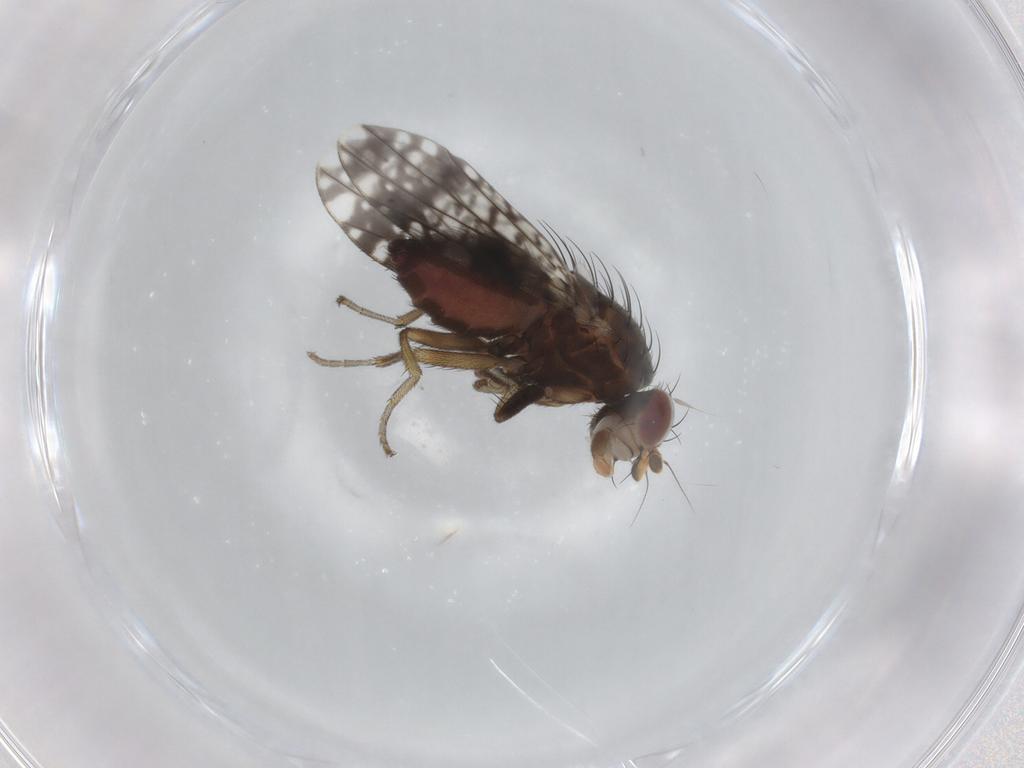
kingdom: Animalia
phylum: Arthropoda
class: Insecta
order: Diptera
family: Tephritidae
